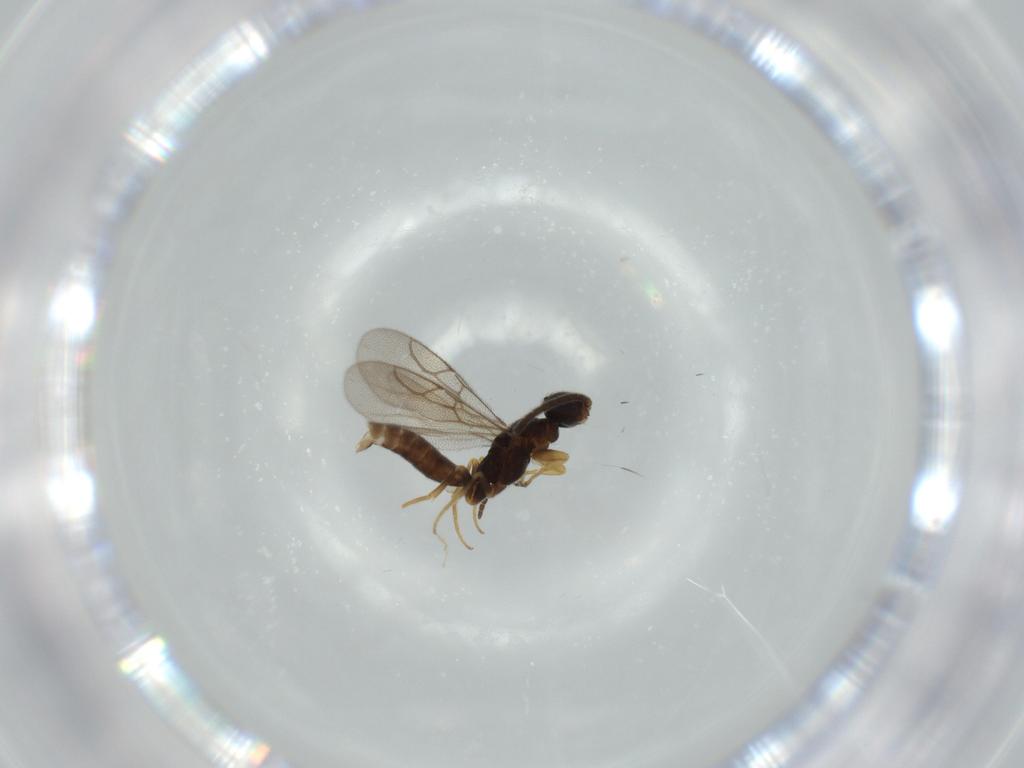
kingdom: Animalia
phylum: Arthropoda
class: Insecta
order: Hymenoptera
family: Sclerogibbidae
